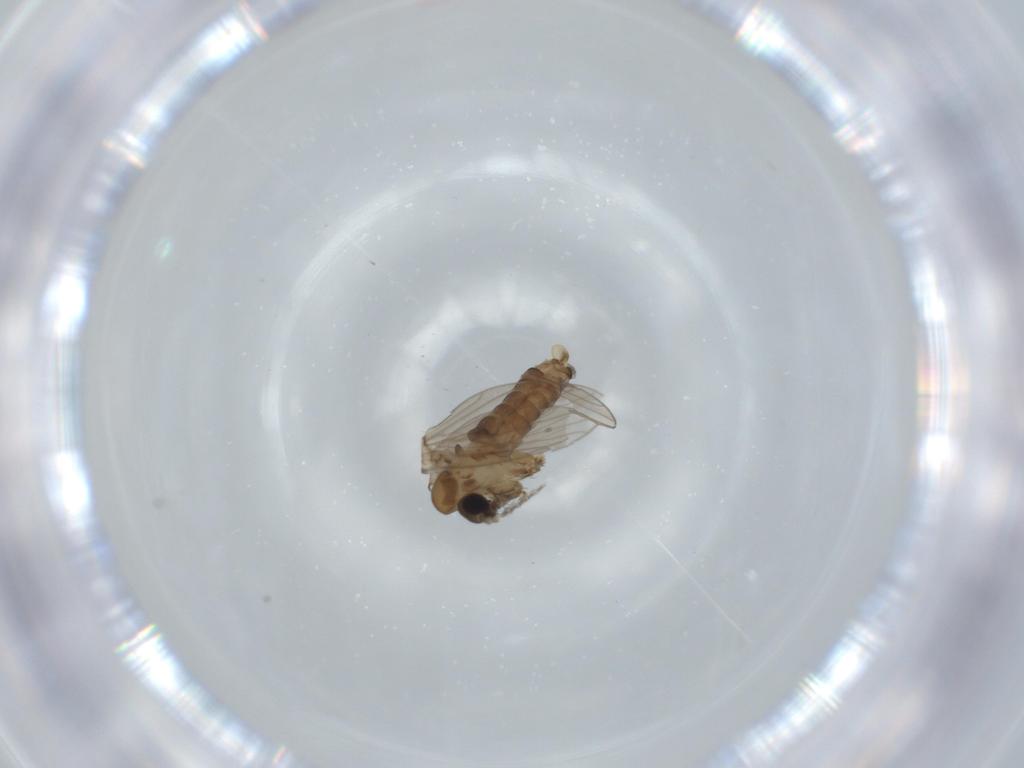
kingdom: Animalia
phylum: Arthropoda
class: Insecta
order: Diptera
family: Psychodidae
